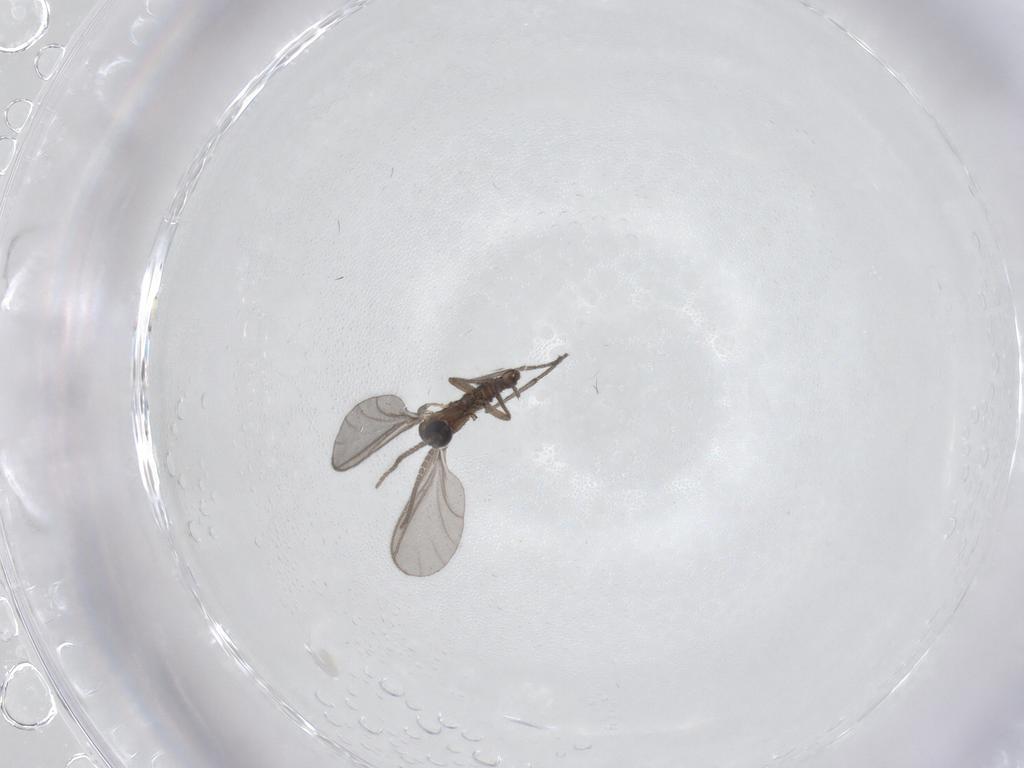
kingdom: Animalia
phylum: Arthropoda
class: Insecta
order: Diptera
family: Sciaridae
